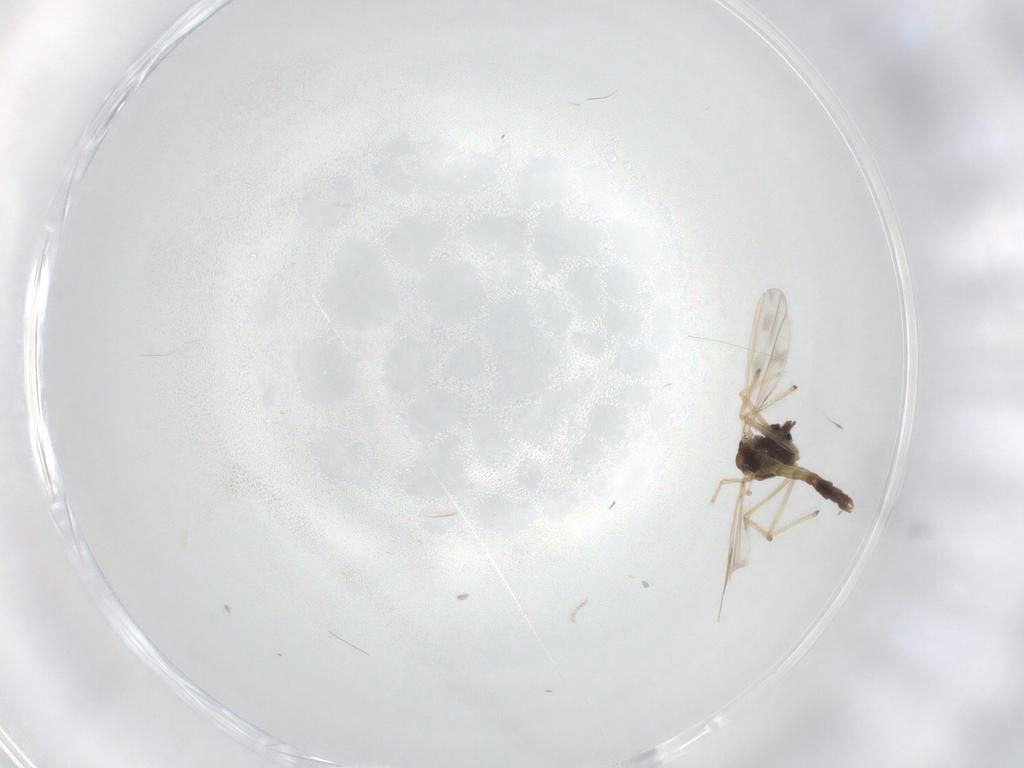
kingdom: Animalia
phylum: Arthropoda
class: Insecta
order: Diptera
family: Chironomidae
